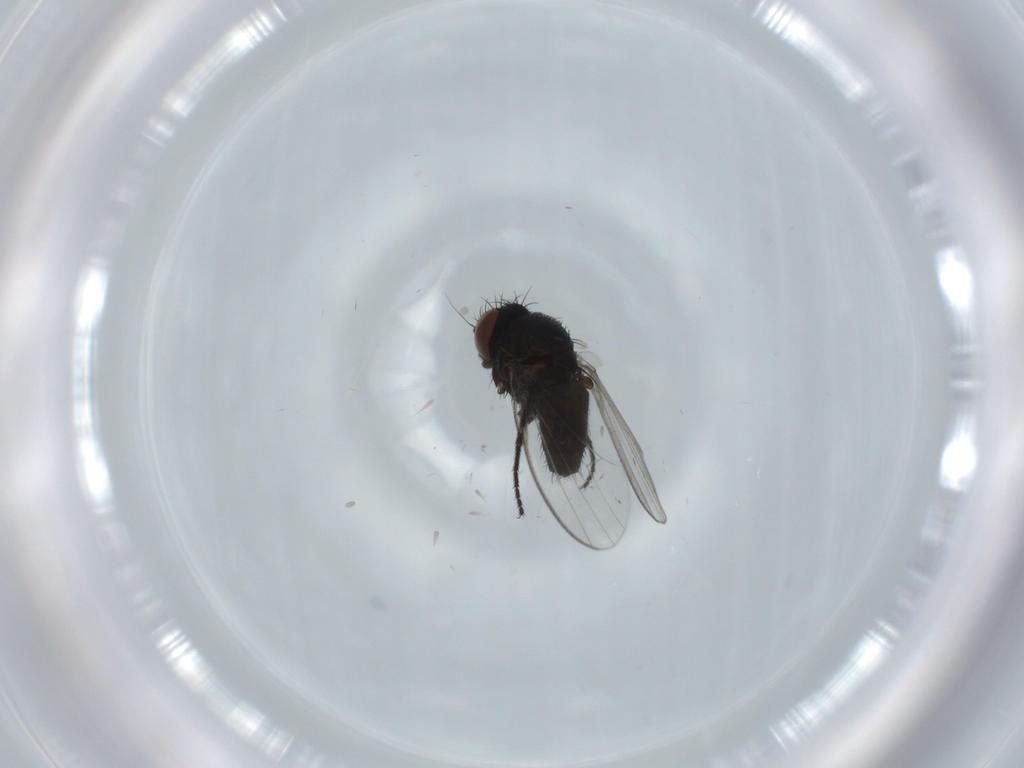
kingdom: Animalia
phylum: Arthropoda
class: Insecta
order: Diptera
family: Milichiidae
